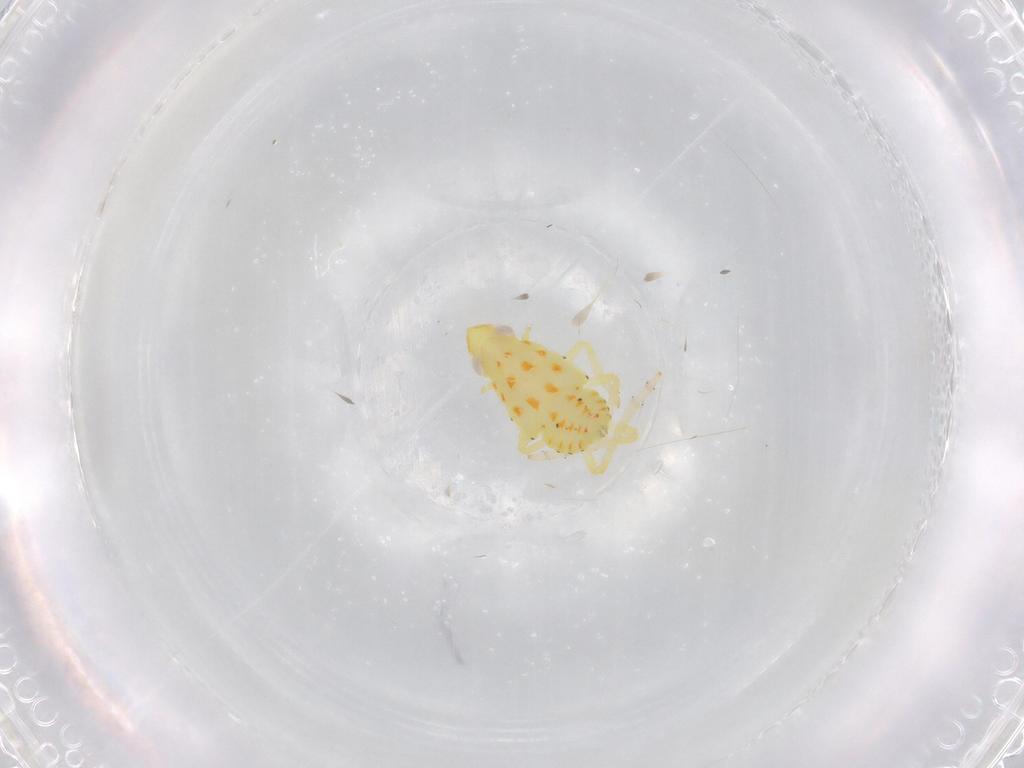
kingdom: Animalia
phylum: Arthropoda
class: Insecta
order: Hemiptera
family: Tropiduchidae
